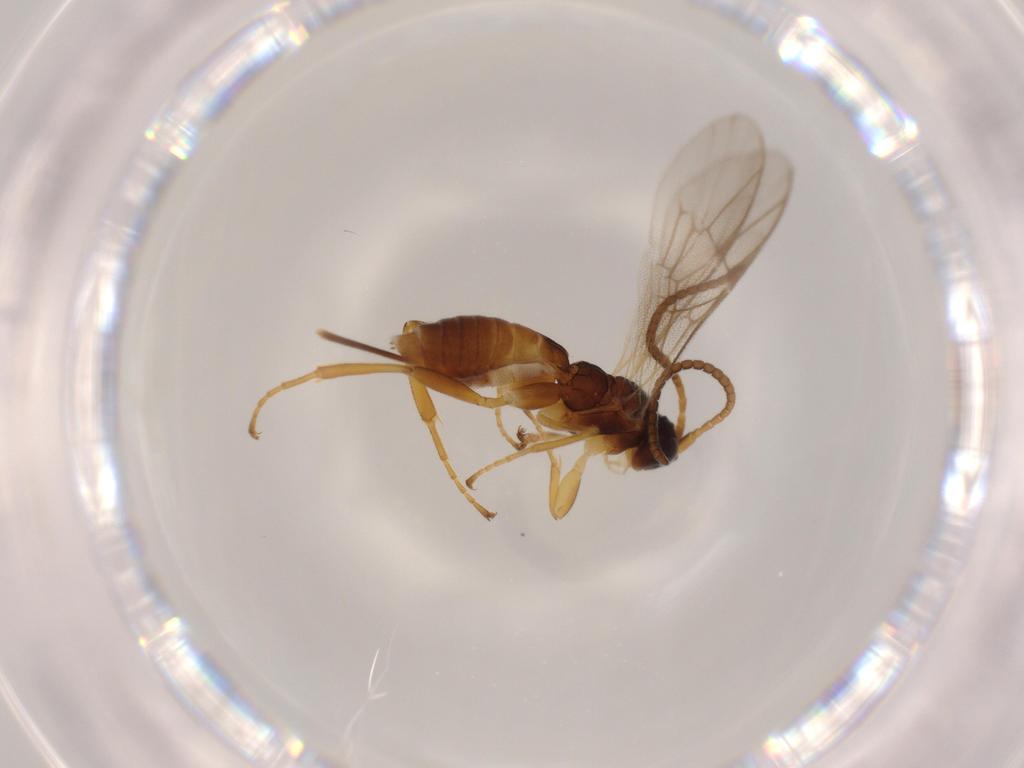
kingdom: Animalia
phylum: Arthropoda
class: Insecta
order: Hymenoptera
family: Ichneumonidae
